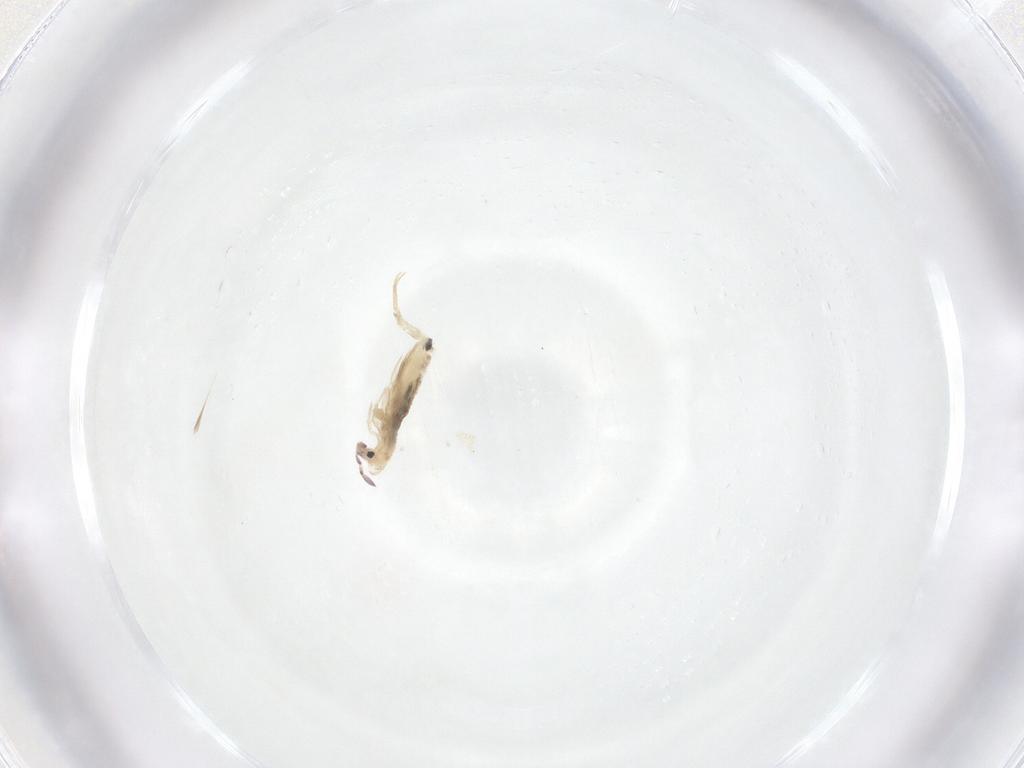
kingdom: Animalia
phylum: Arthropoda
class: Collembola
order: Entomobryomorpha
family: Entomobryidae
